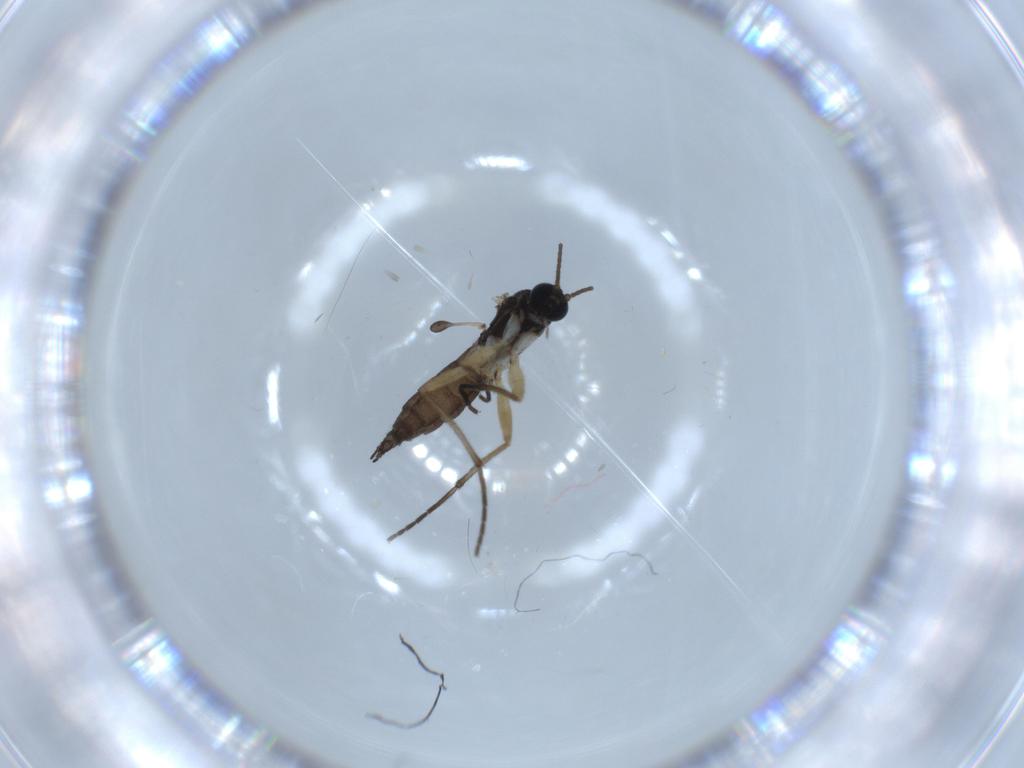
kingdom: Animalia
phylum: Arthropoda
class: Insecta
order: Diptera
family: Sciaridae
